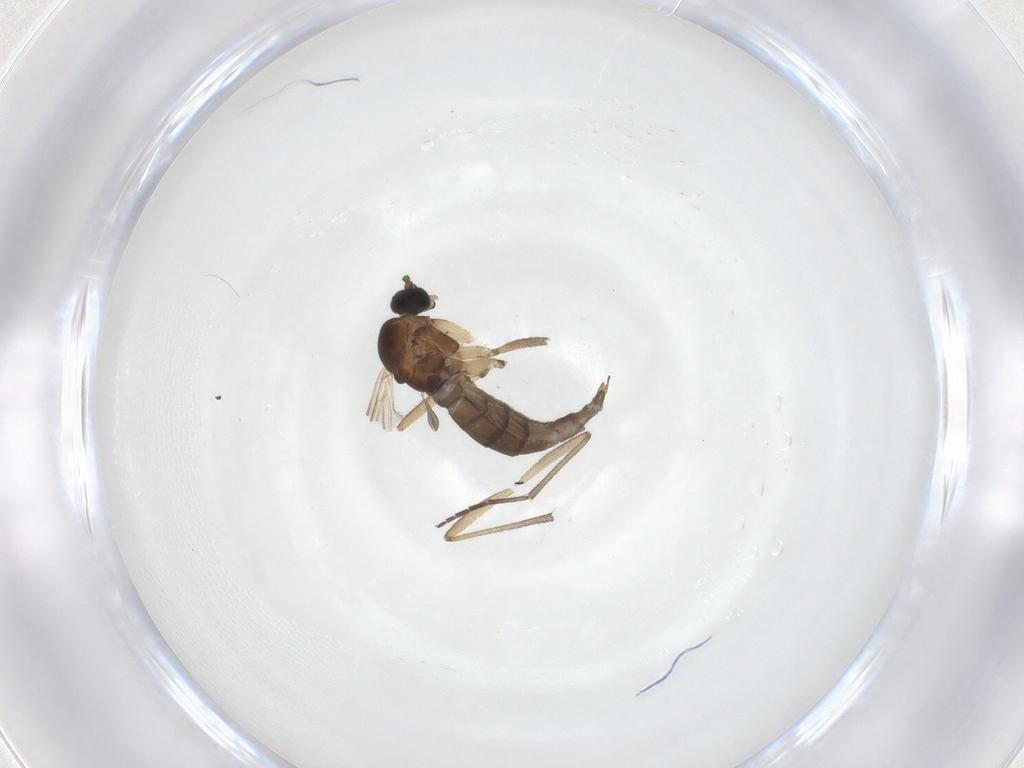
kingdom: Animalia
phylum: Arthropoda
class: Insecta
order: Diptera
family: Sciaridae
